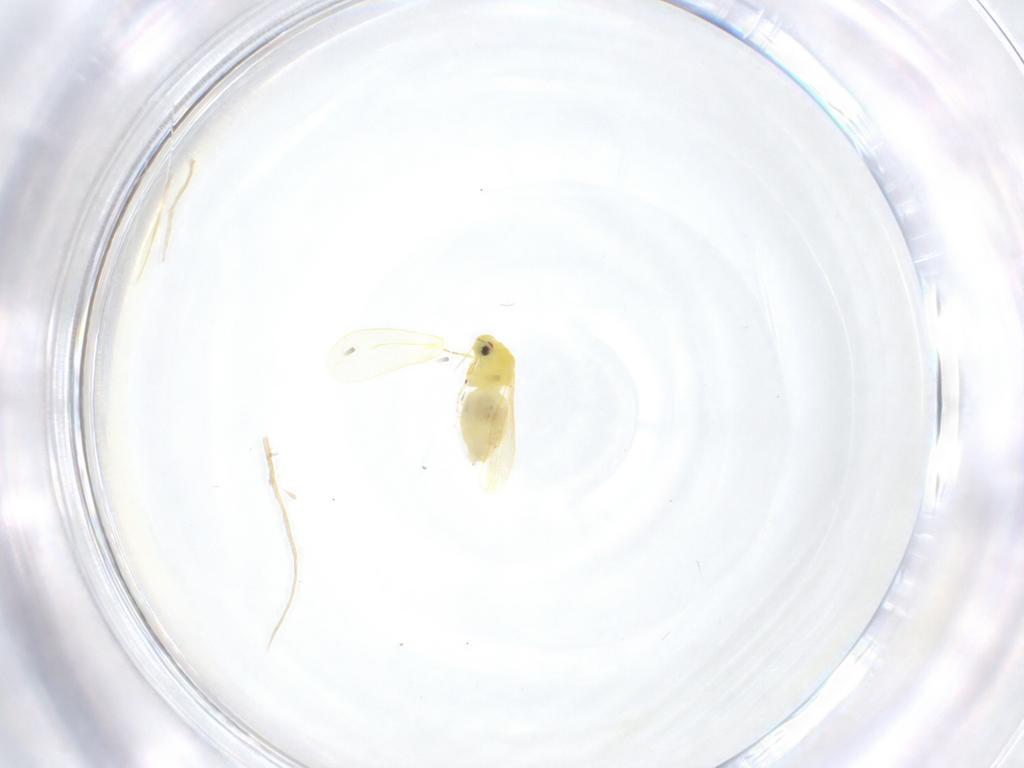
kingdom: Animalia
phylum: Arthropoda
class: Insecta
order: Hemiptera
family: Aleyrodidae
